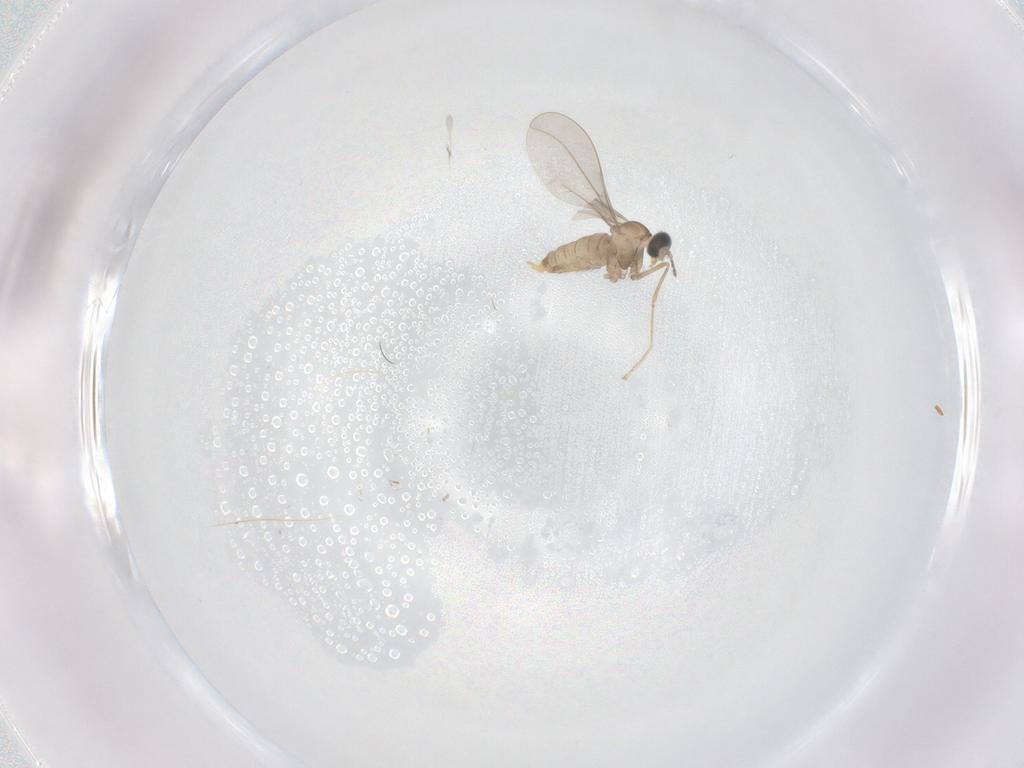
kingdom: Animalia
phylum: Arthropoda
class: Insecta
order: Diptera
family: Cecidomyiidae
